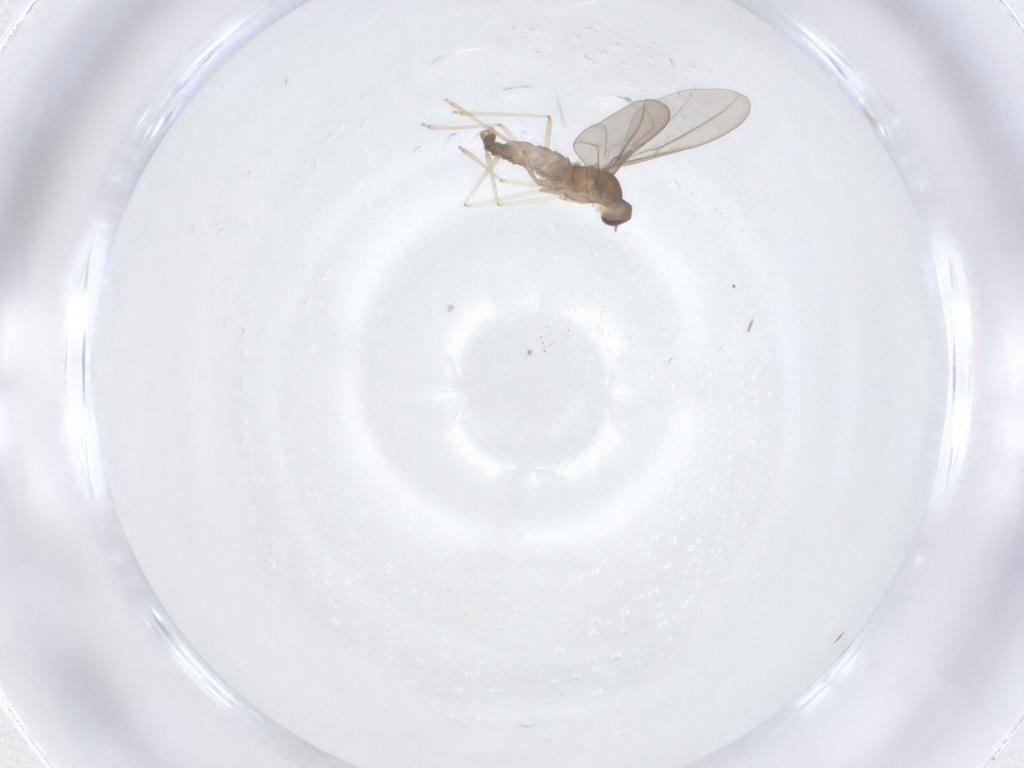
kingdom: Animalia
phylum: Arthropoda
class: Insecta
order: Diptera
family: Cecidomyiidae
